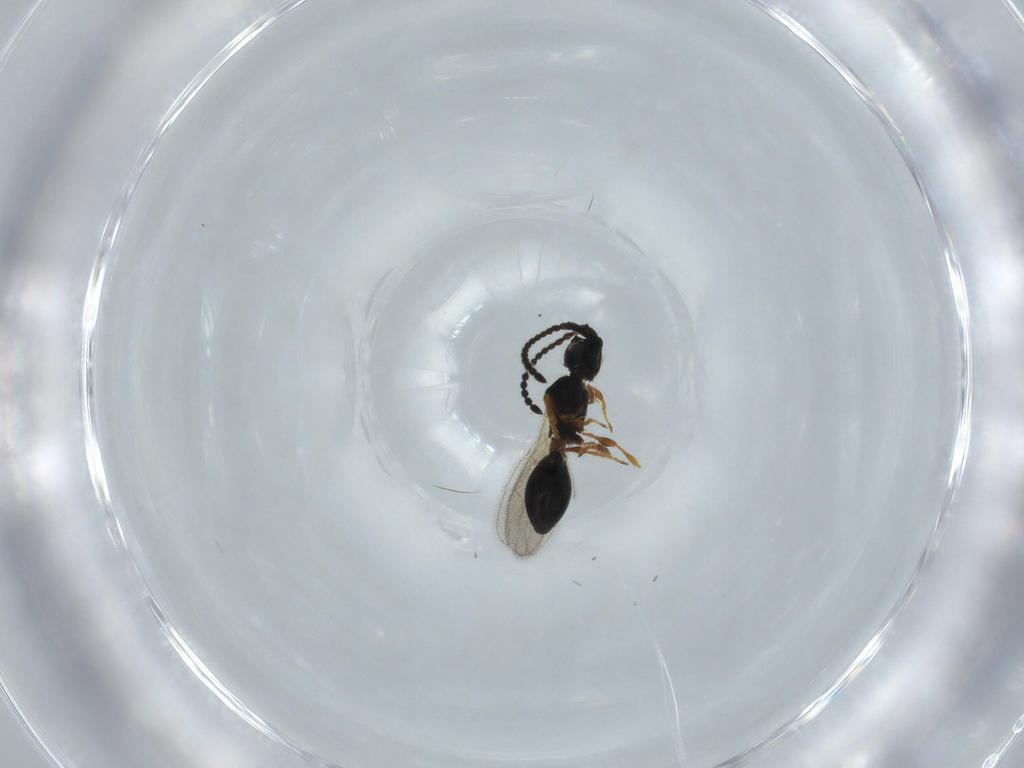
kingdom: Animalia
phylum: Arthropoda
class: Insecta
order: Hymenoptera
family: Diapriidae
